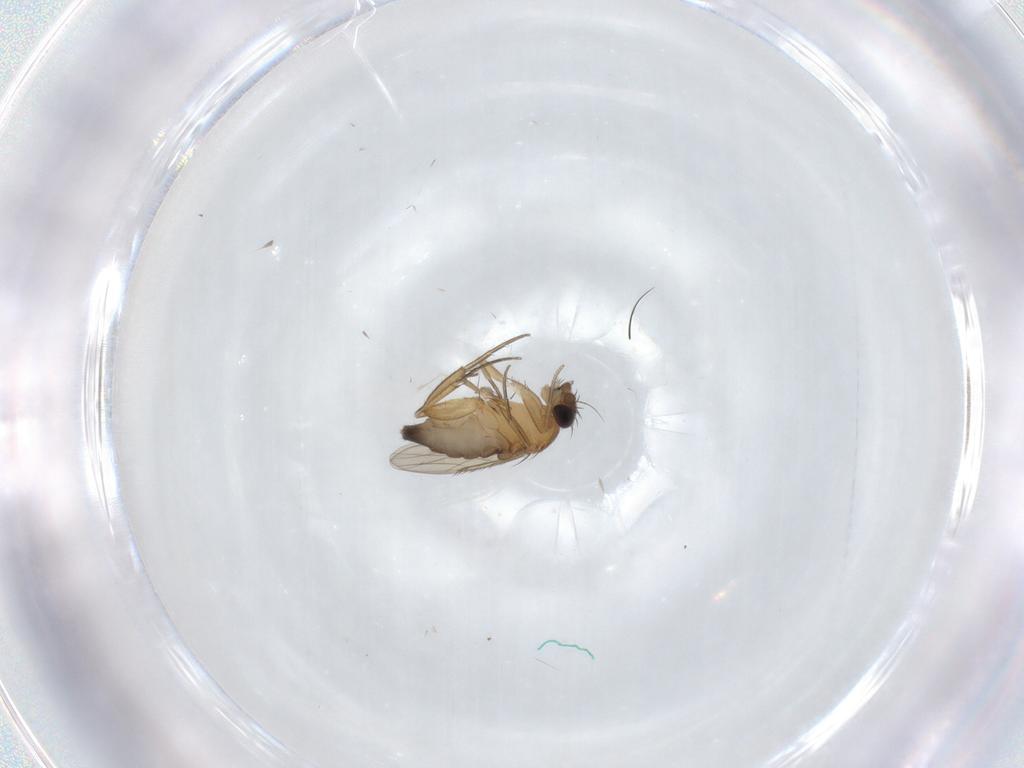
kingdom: Animalia
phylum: Arthropoda
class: Insecta
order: Diptera
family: Phoridae
